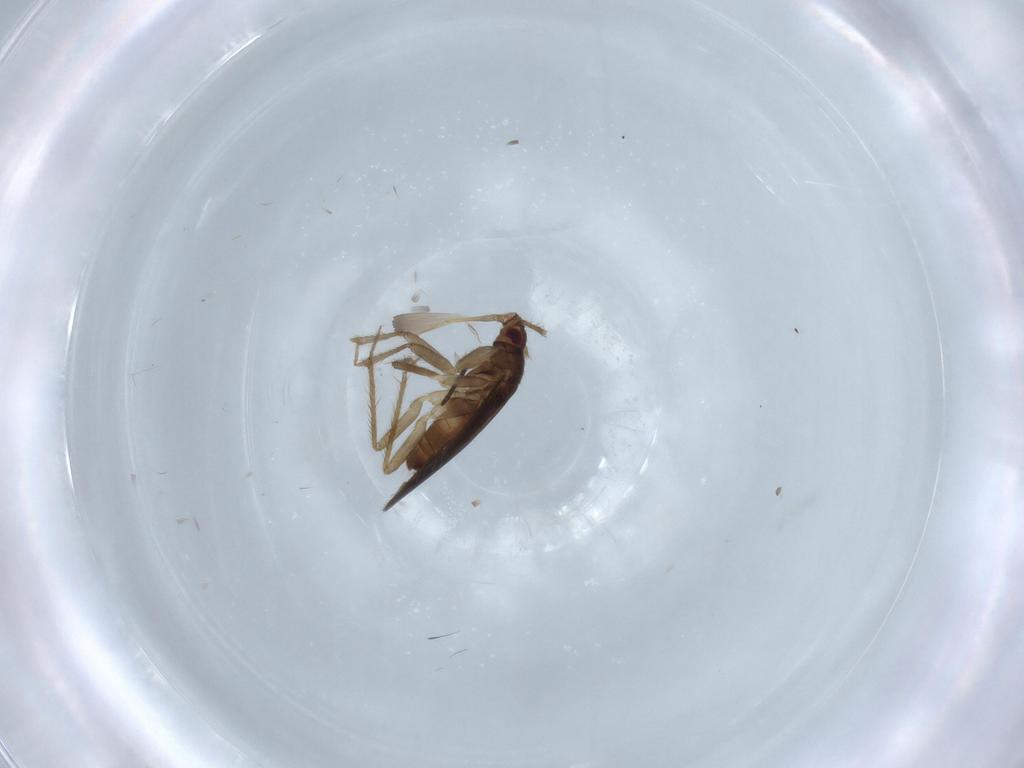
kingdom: Animalia
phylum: Arthropoda
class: Insecta
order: Hemiptera
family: Ceratocombidae
